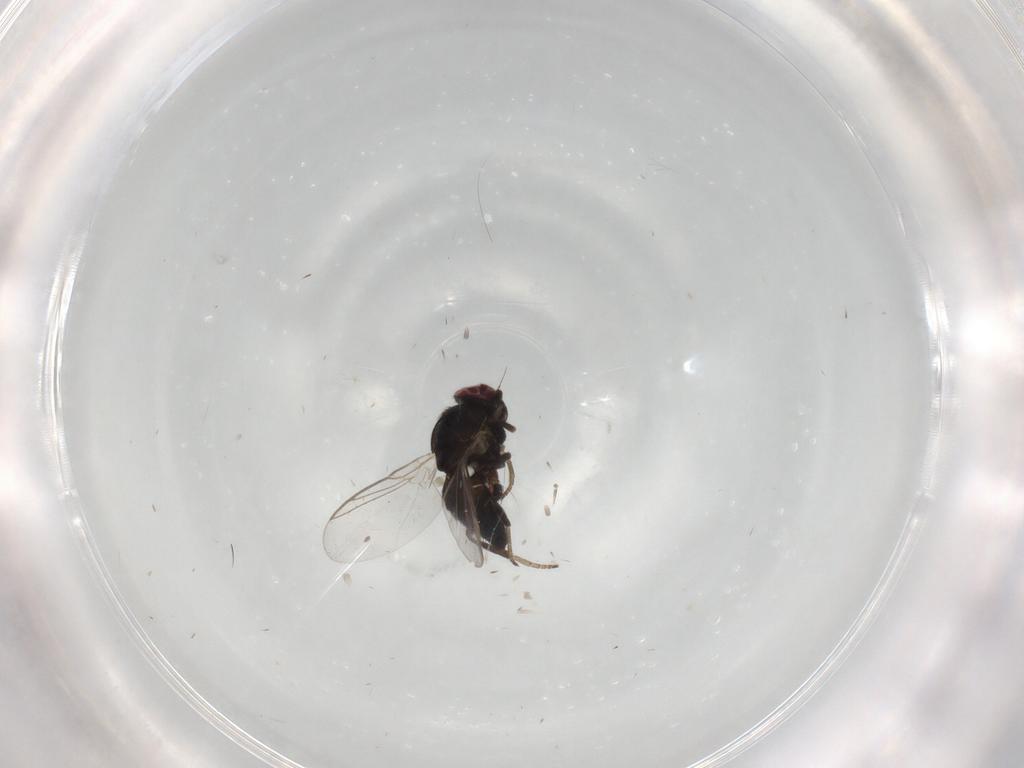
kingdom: Animalia
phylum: Arthropoda
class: Insecta
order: Diptera
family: Agromyzidae
